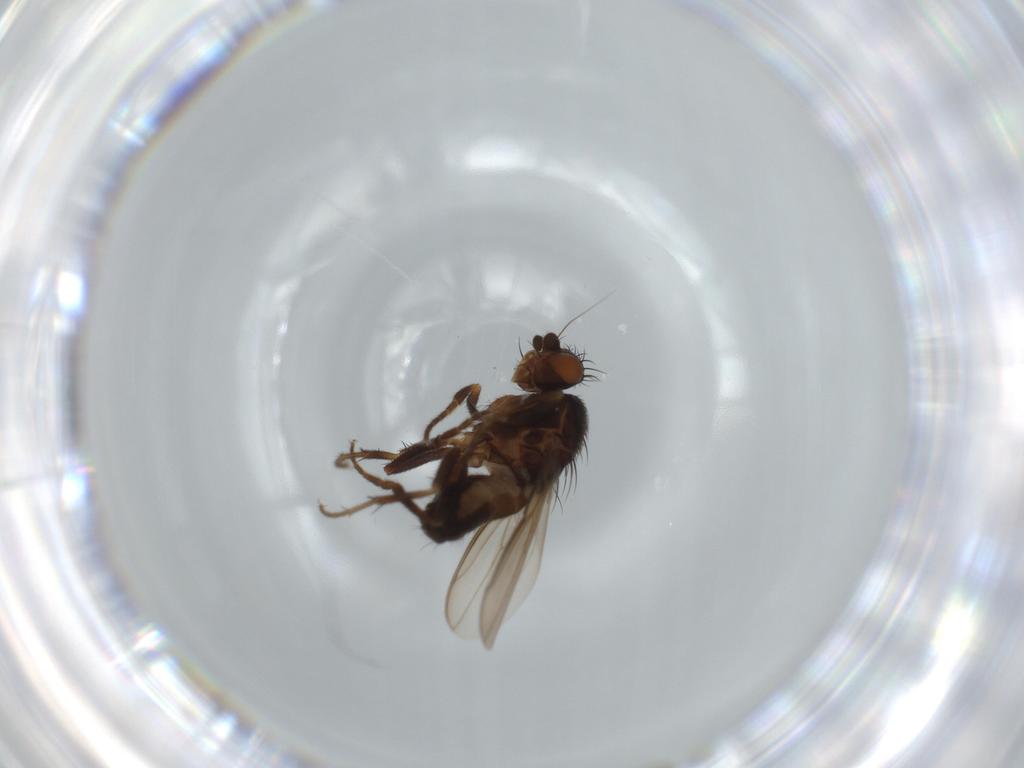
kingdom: Animalia
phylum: Arthropoda
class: Insecta
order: Diptera
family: Sphaeroceridae
